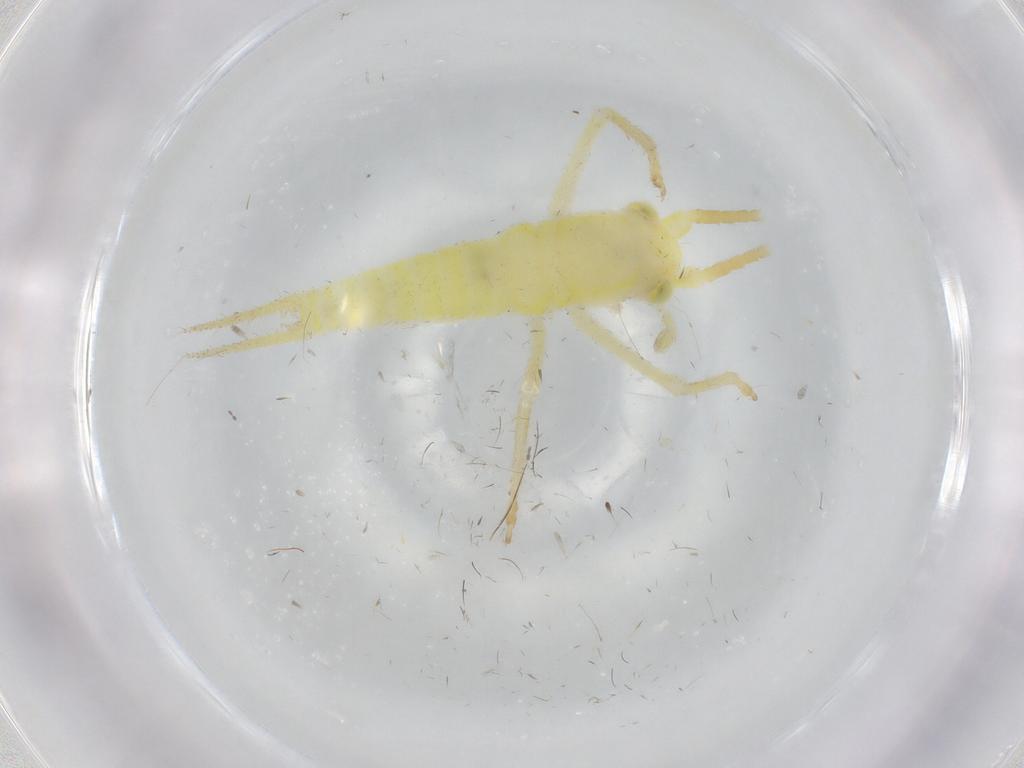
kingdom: Animalia
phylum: Arthropoda
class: Insecta
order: Orthoptera
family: Trigonidiidae
